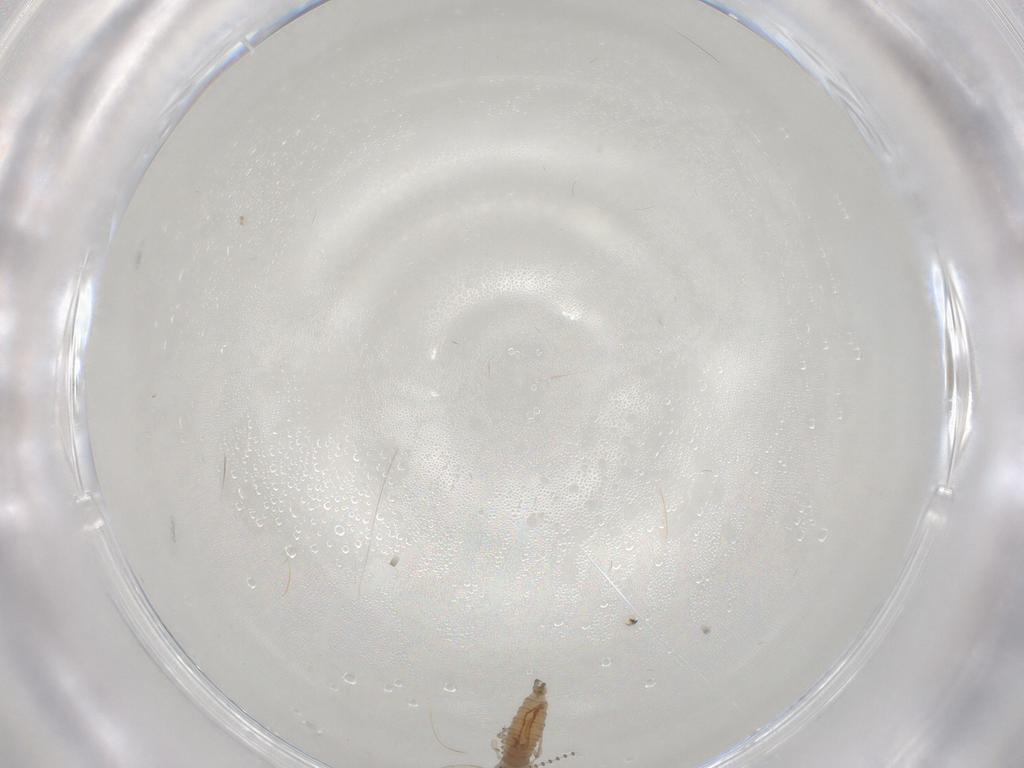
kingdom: Animalia
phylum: Arthropoda
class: Insecta
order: Diptera
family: Psychodidae
